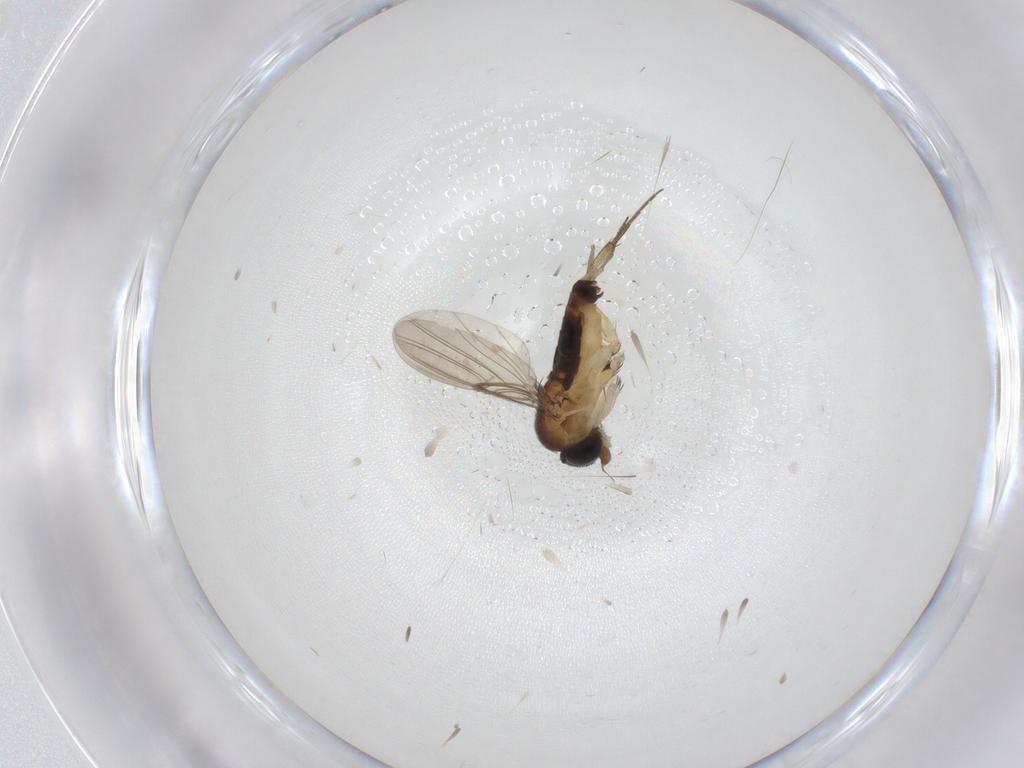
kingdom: Animalia
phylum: Arthropoda
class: Insecta
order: Diptera
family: Phoridae
